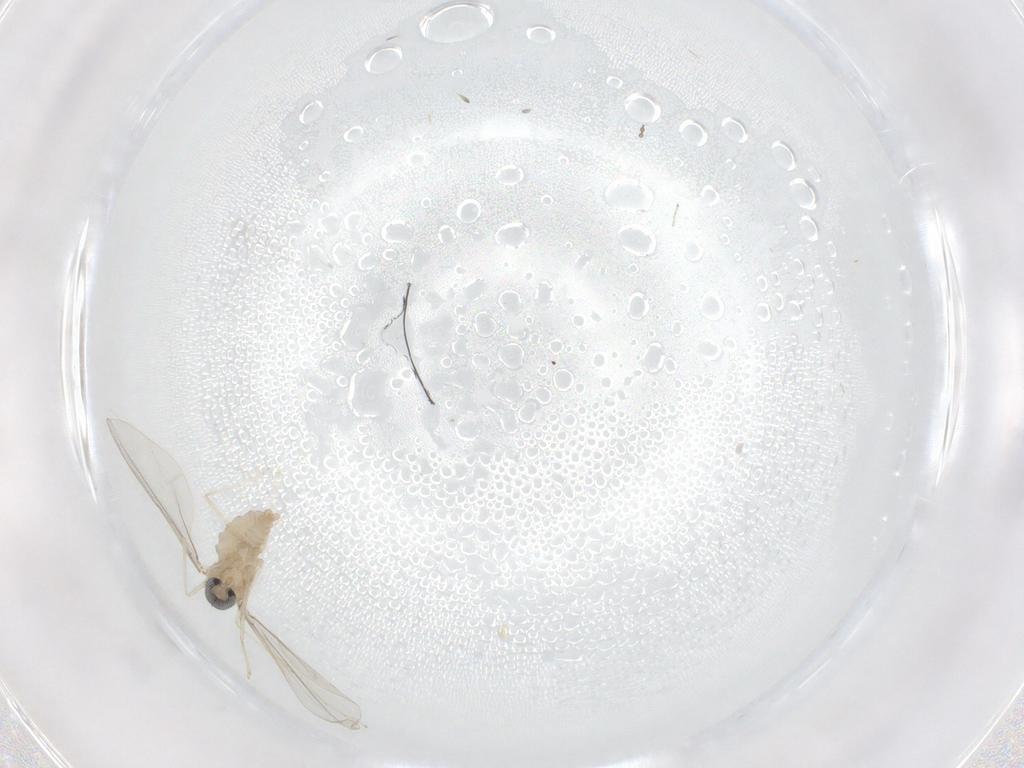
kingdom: Animalia
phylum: Arthropoda
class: Insecta
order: Diptera
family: Cecidomyiidae
